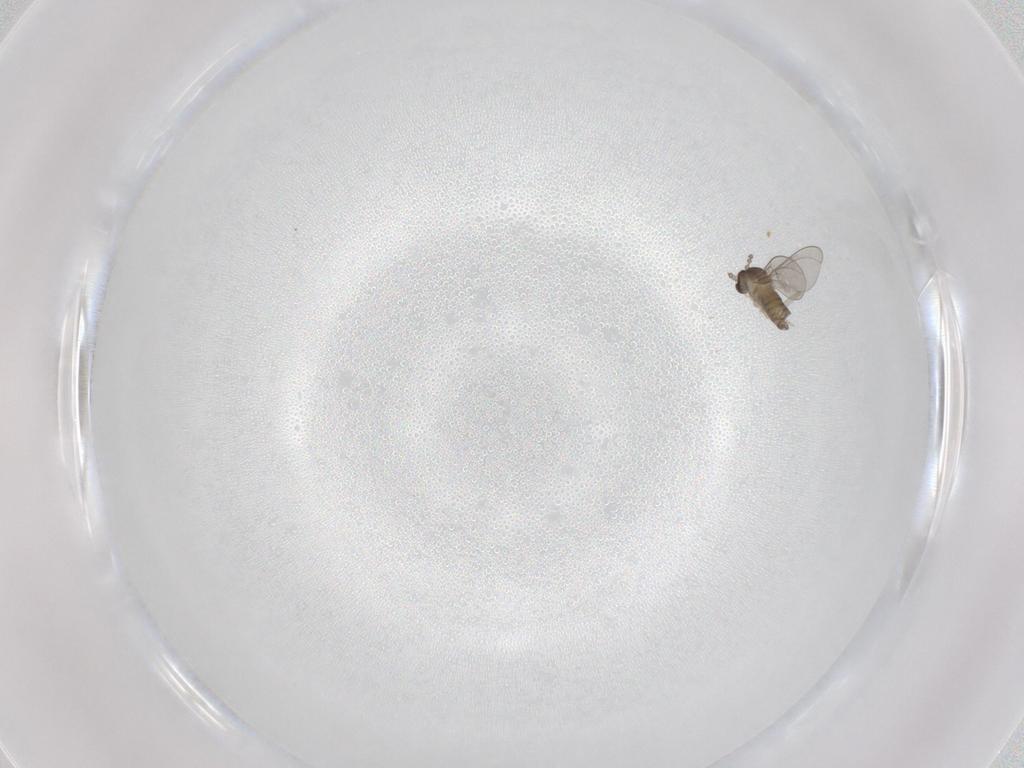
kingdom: Animalia
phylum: Arthropoda
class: Insecta
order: Diptera
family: Cecidomyiidae
